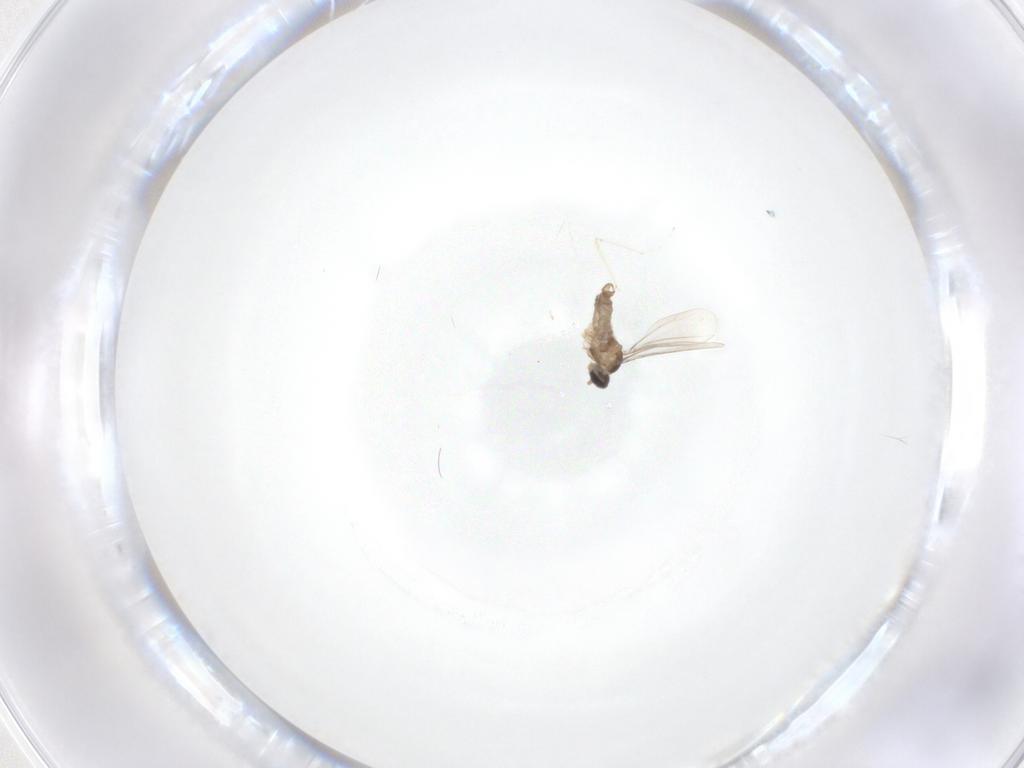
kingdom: Animalia
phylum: Arthropoda
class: Insecta
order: Diptera
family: Cecidomyiidae
